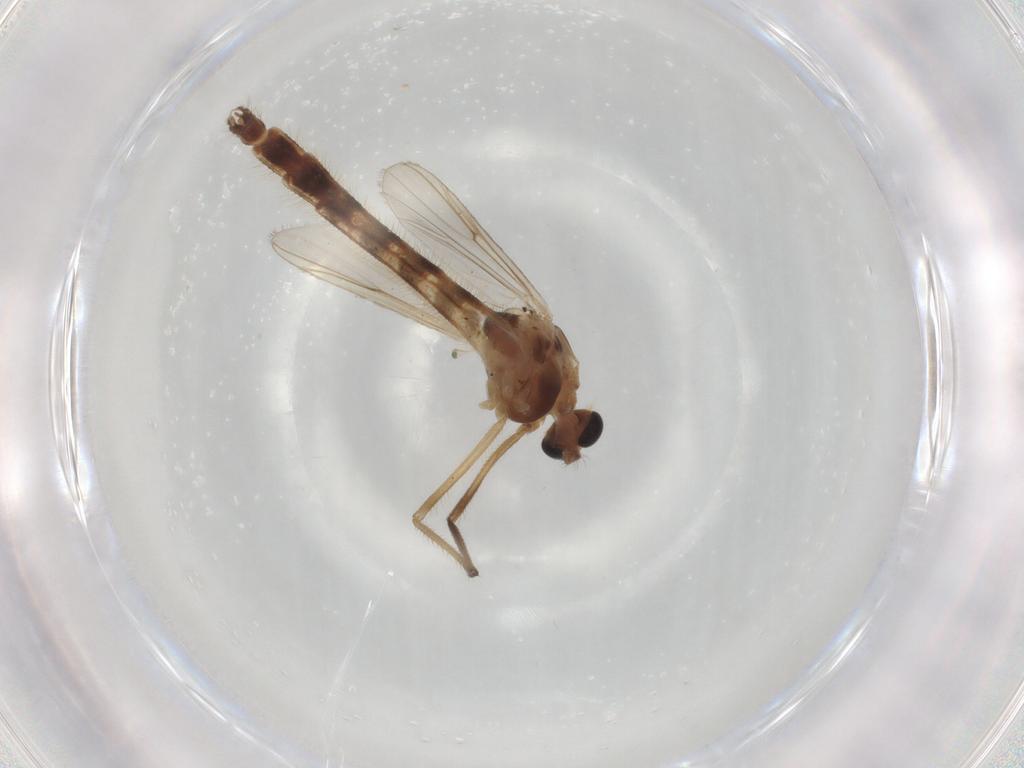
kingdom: Animalia
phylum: Arthropoda
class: Insecta
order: Diptera
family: Chironomidae
